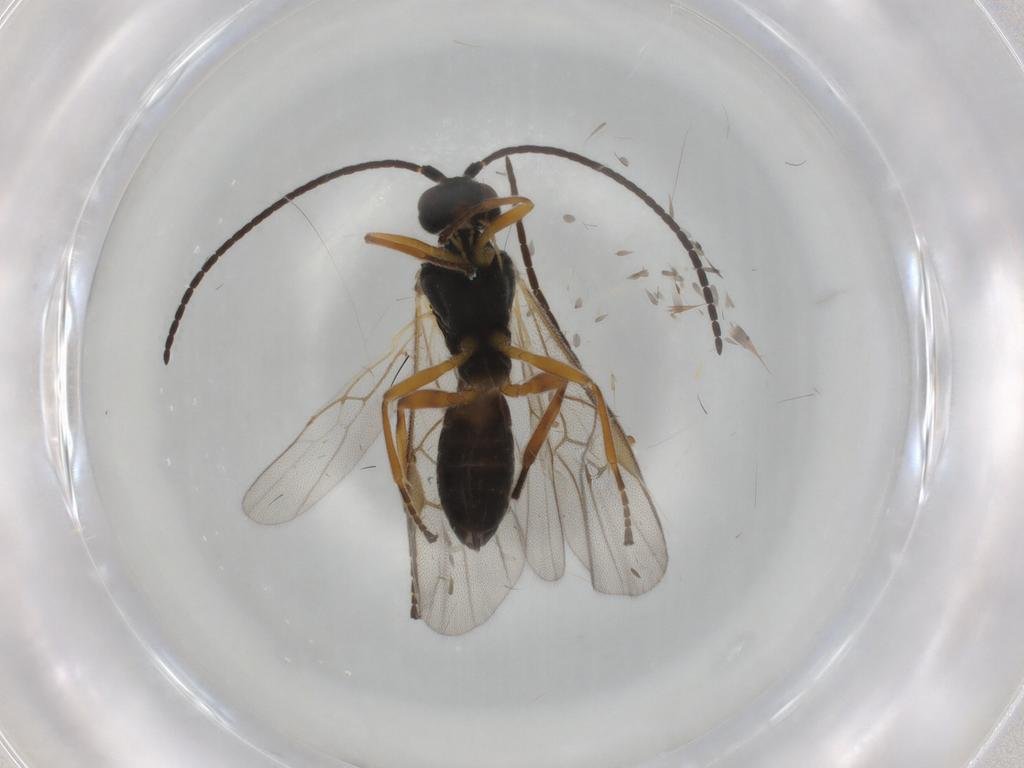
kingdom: Animalia
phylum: Arthropoda
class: Insecta
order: Hymenoptera
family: Braconidae
